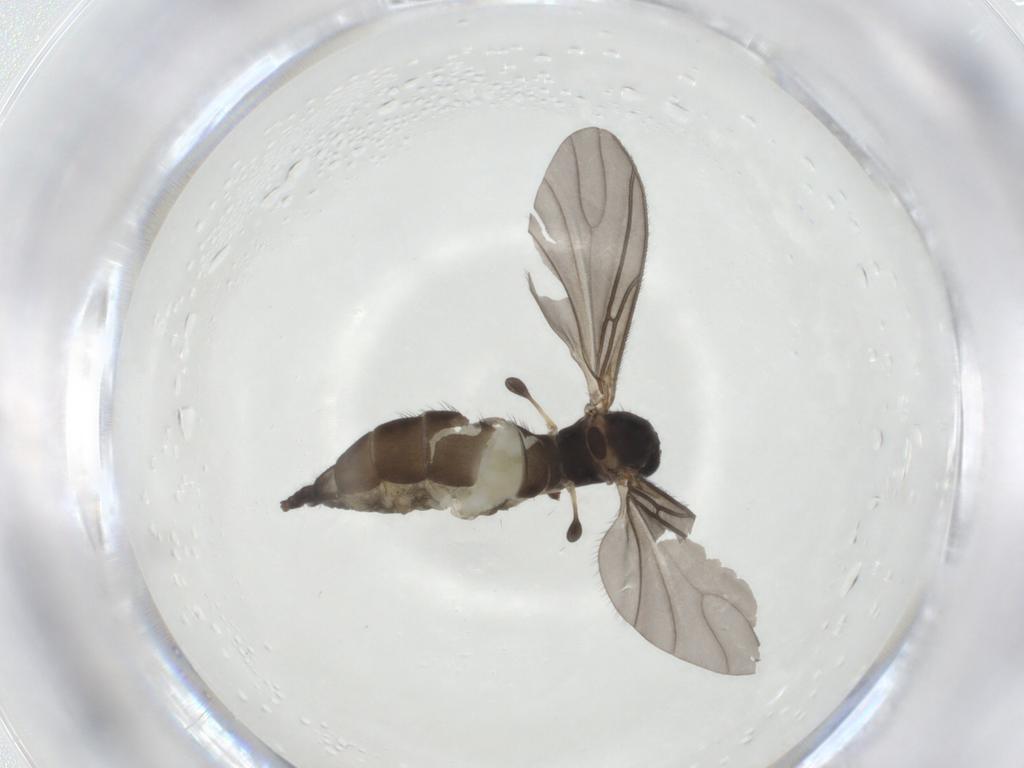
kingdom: Animalia
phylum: Arthropoda
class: Insecta
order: Diptera
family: Sciaridae
